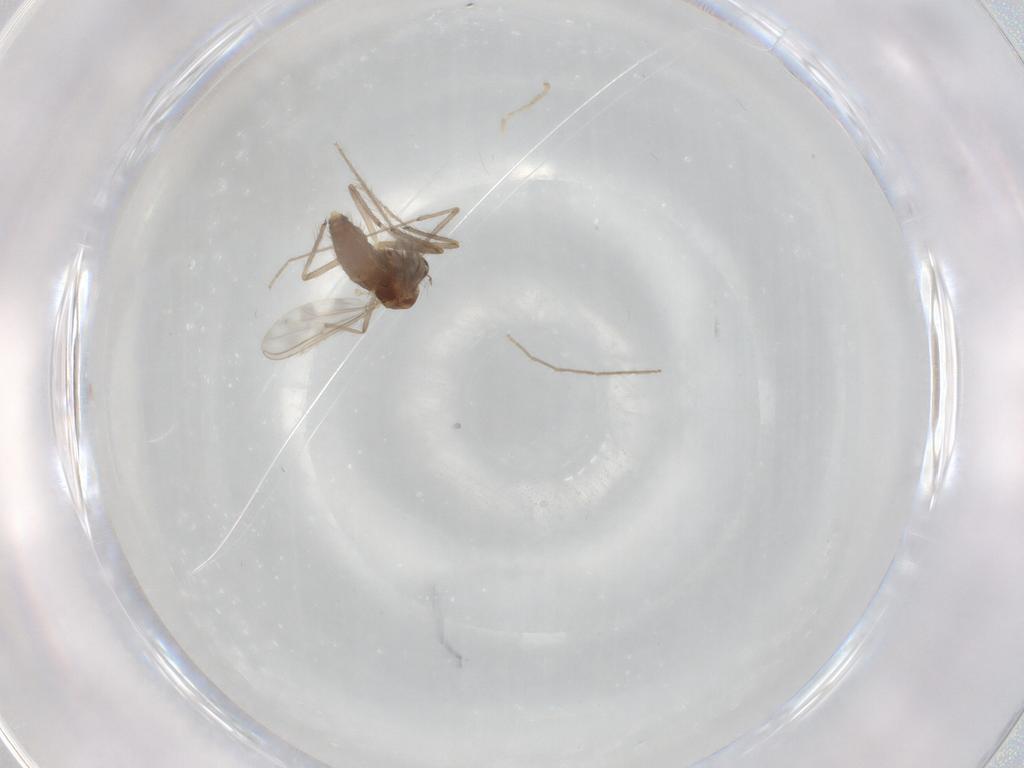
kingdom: Animalia
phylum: Arthropoda
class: Insecta
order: Diptera
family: Chironomidae
